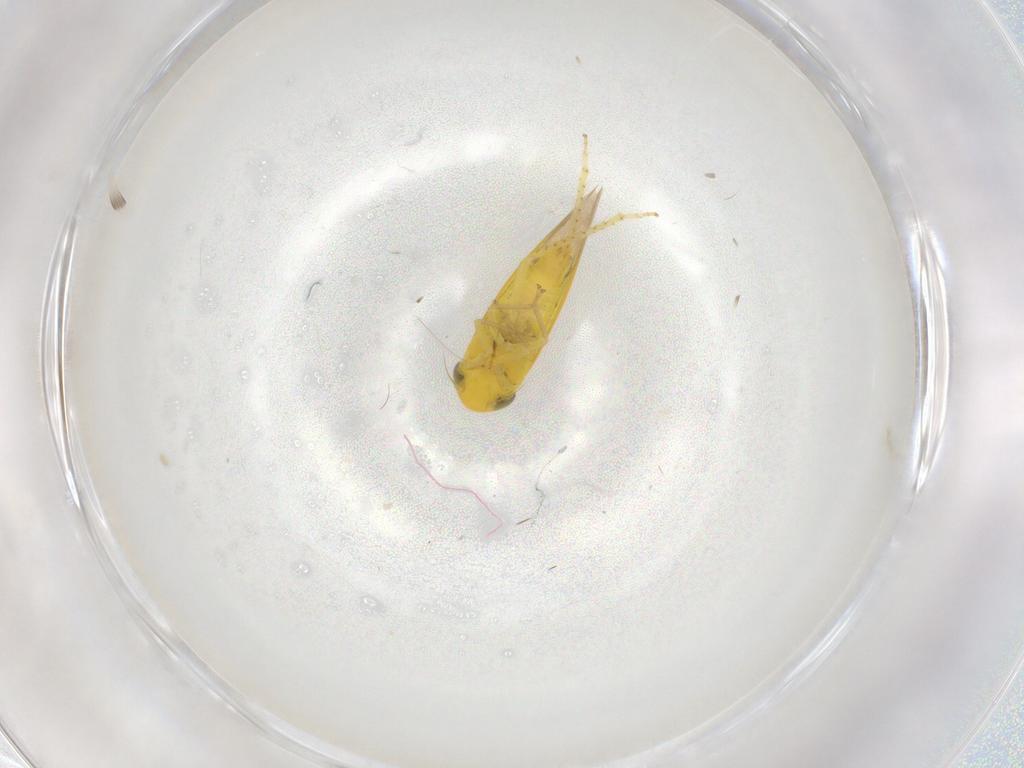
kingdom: Animalia
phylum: Arthropoda
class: Insecta
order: Hemiptera
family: Cicadellidae
